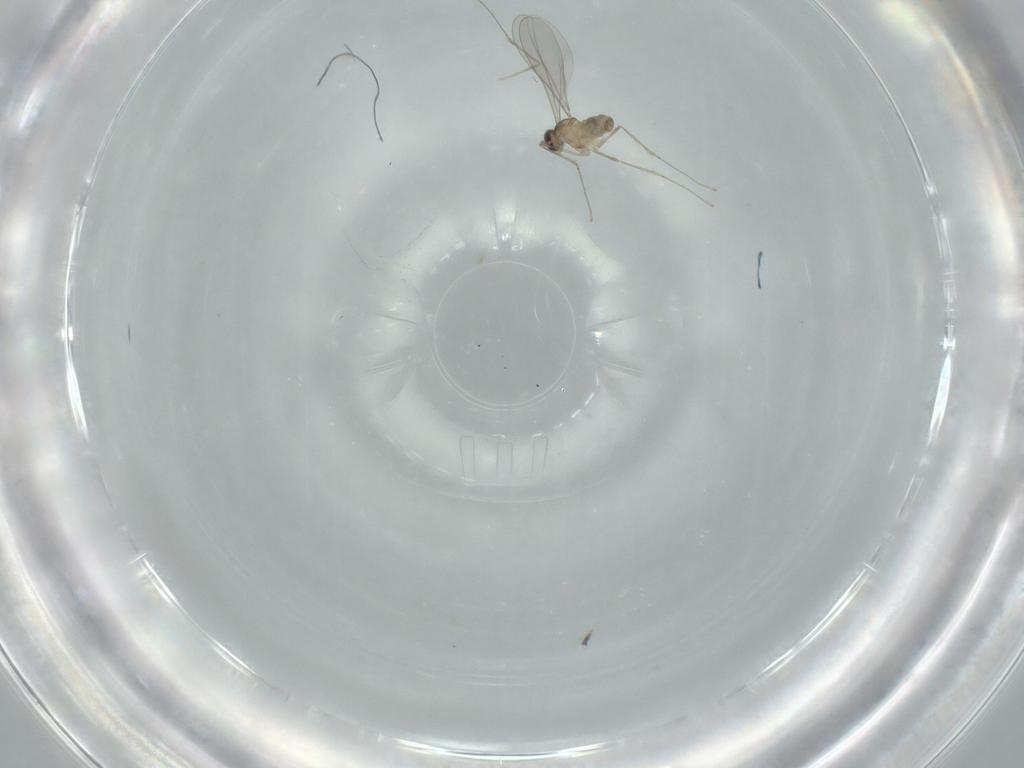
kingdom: Animalia
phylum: Arthropoda
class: Insecta
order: Diptera
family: Cecidomyiidae
